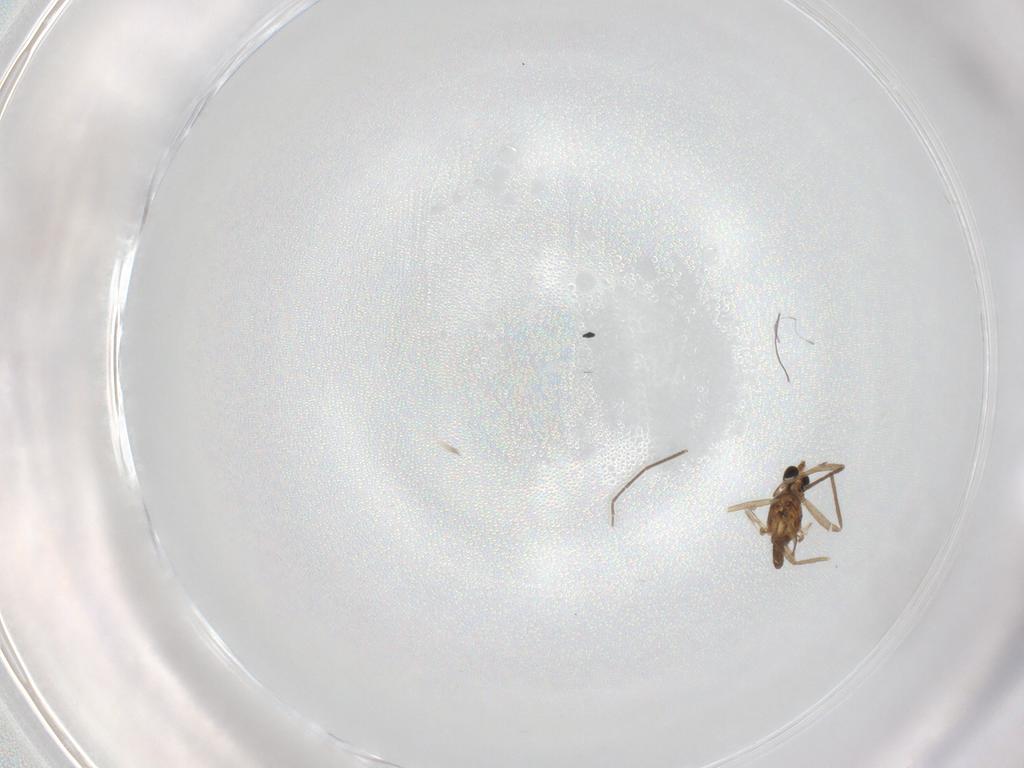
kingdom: Animalia
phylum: Arthropoda
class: Insecta
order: Diptera
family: Chironomidae
